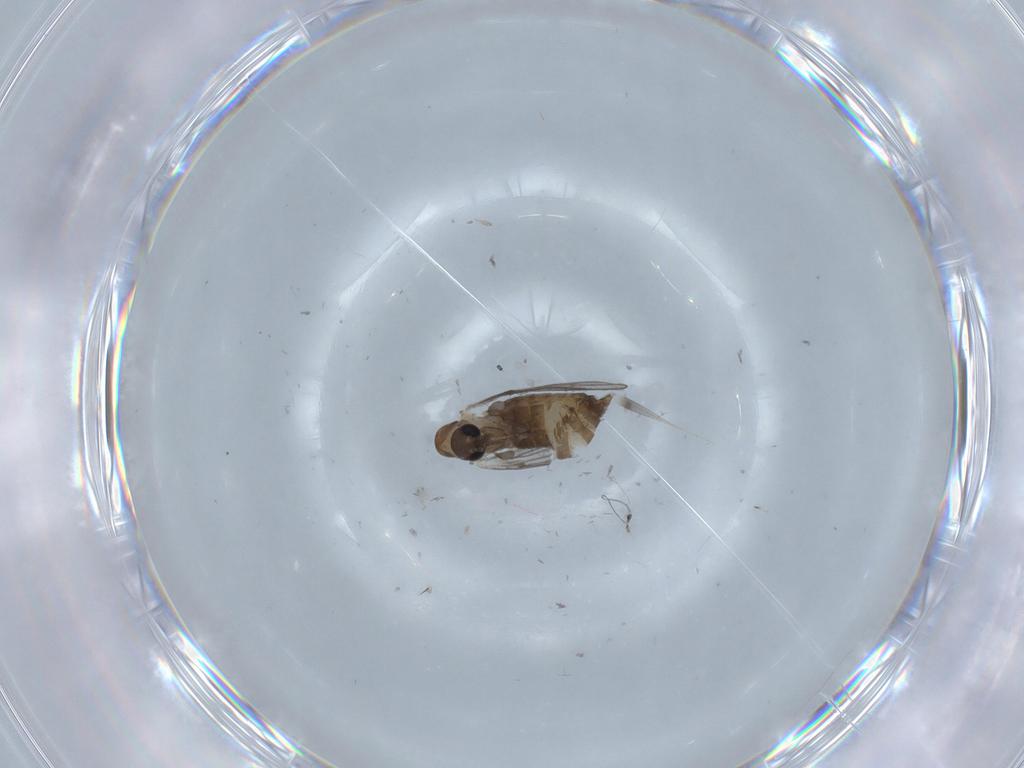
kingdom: Animalia
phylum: Arthropoda
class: Insecta
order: Diptera
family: Ceratopogonidae
